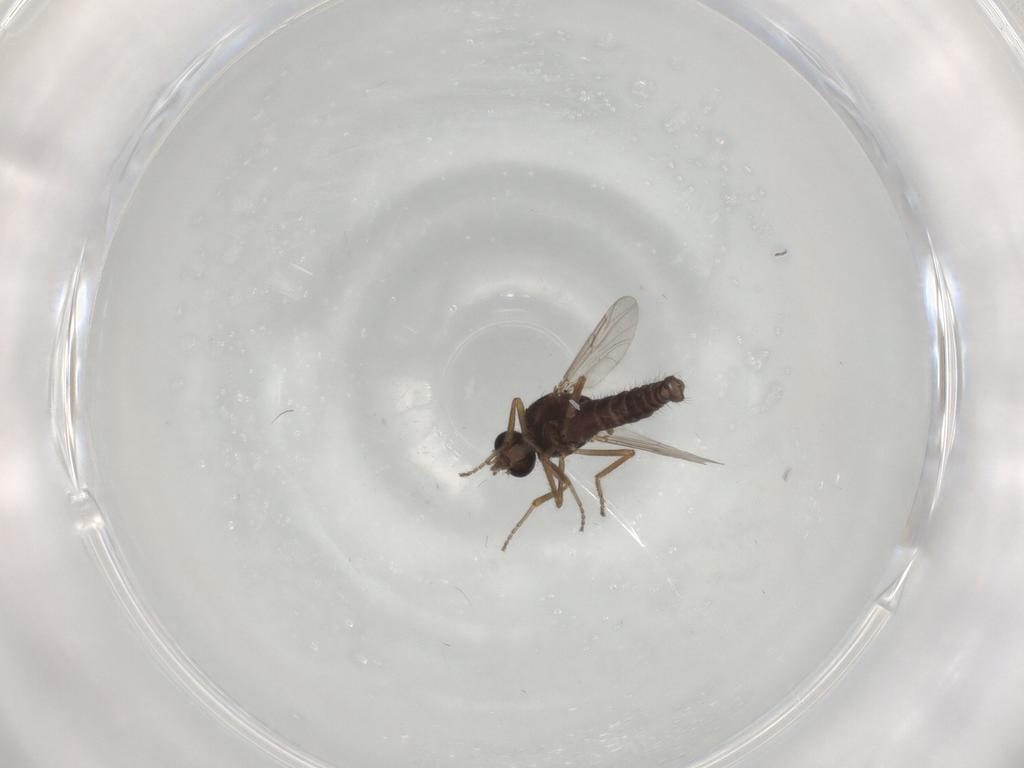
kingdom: Animalia
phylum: Arthropoda
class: Insecta
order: Diptera
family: Ceratopogonidae
